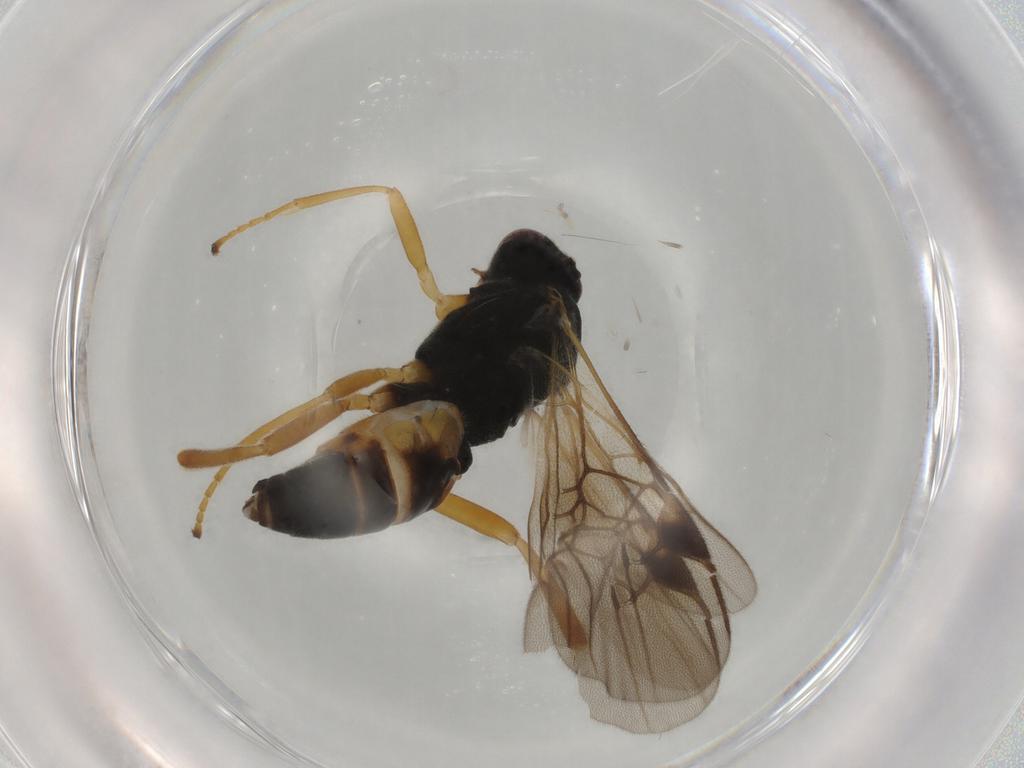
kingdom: Animalia
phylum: Arthropoda
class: Insecta
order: Hymenoptera
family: Braconidae
